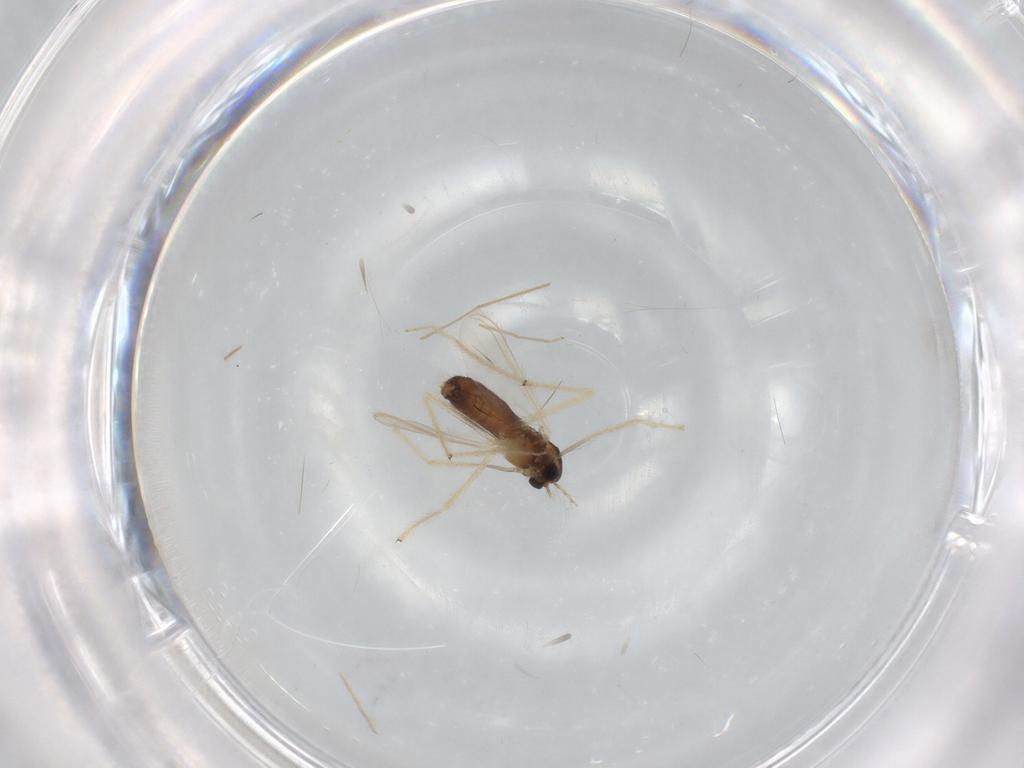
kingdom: Animalia
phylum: Arthropoda
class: Insecta
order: Diptera
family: Chironomidae
